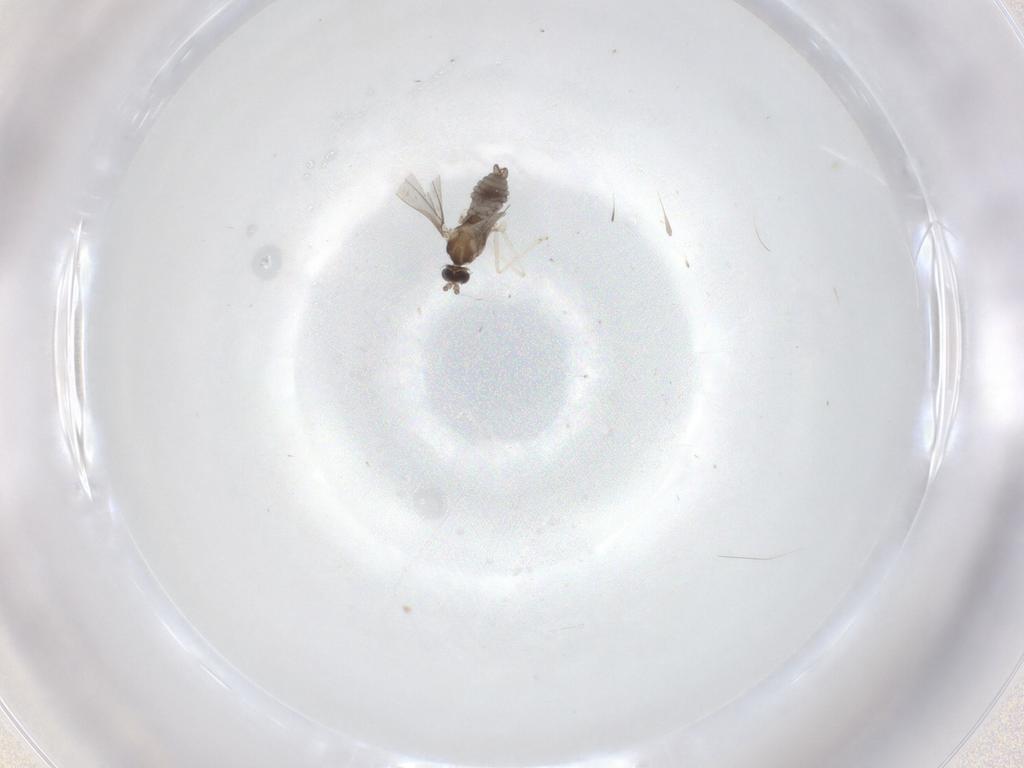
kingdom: Animalia
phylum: Arthropoda
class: Insecta
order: Diptera
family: Cecidomyiidae
